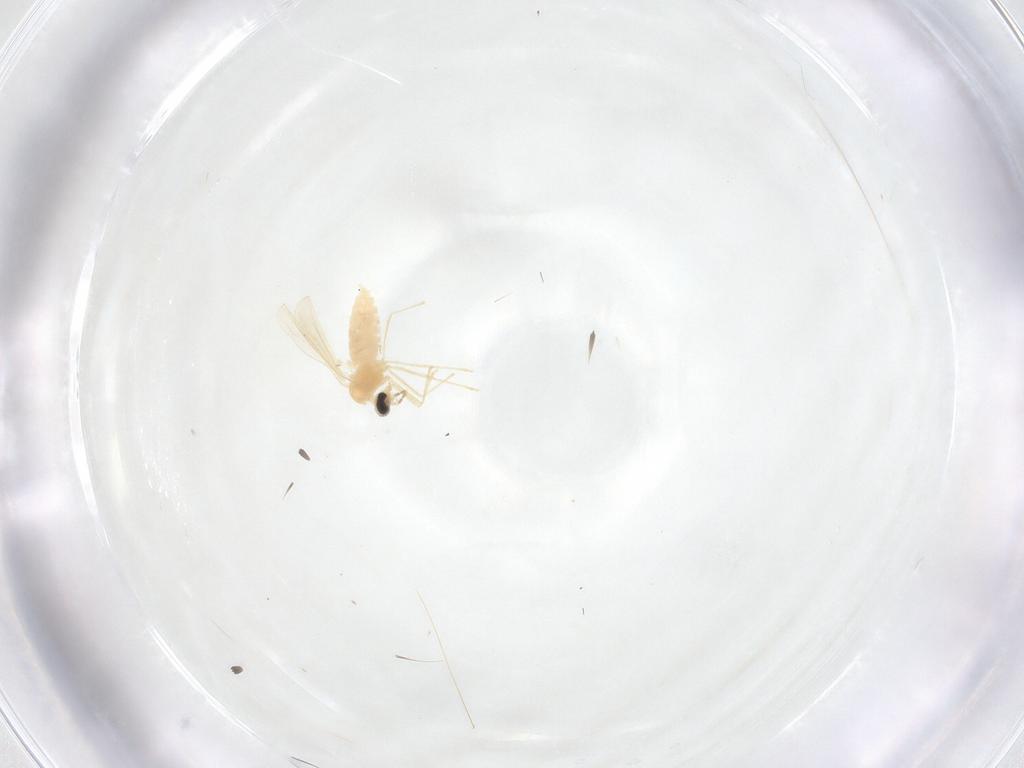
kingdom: Animalia
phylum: Arthropoda
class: Insecta
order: Diptera
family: Cecidomyiidae
